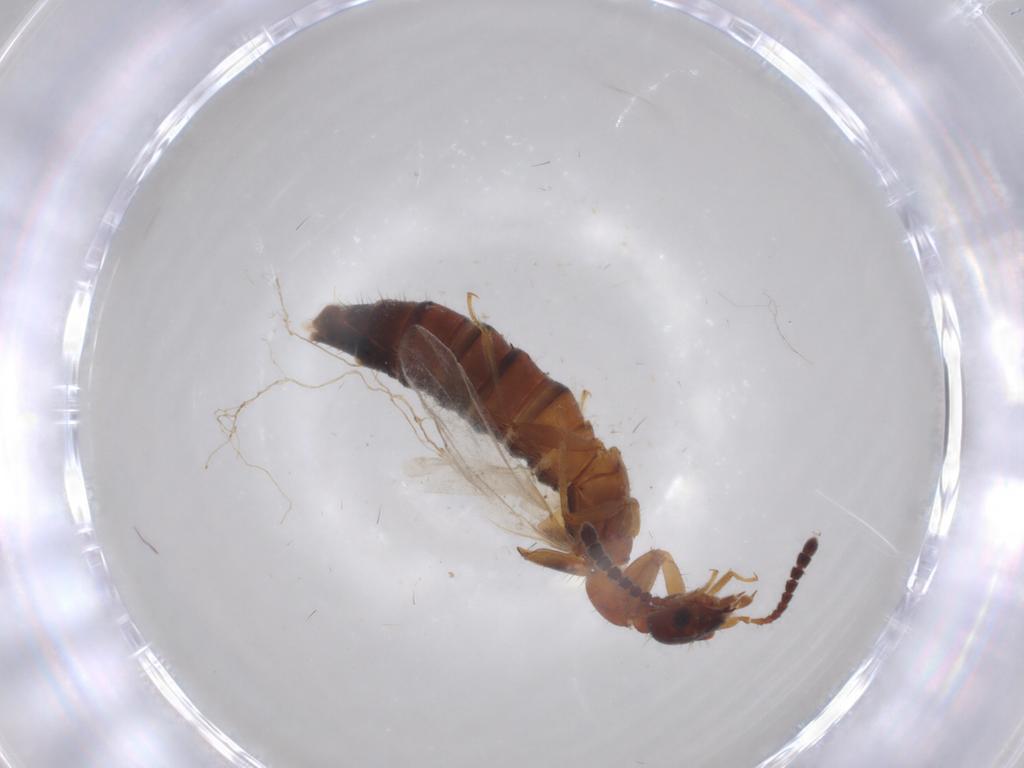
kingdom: Animalia
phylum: Arthropoda
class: Insecta
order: Coleoptera
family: Staphylinidae
